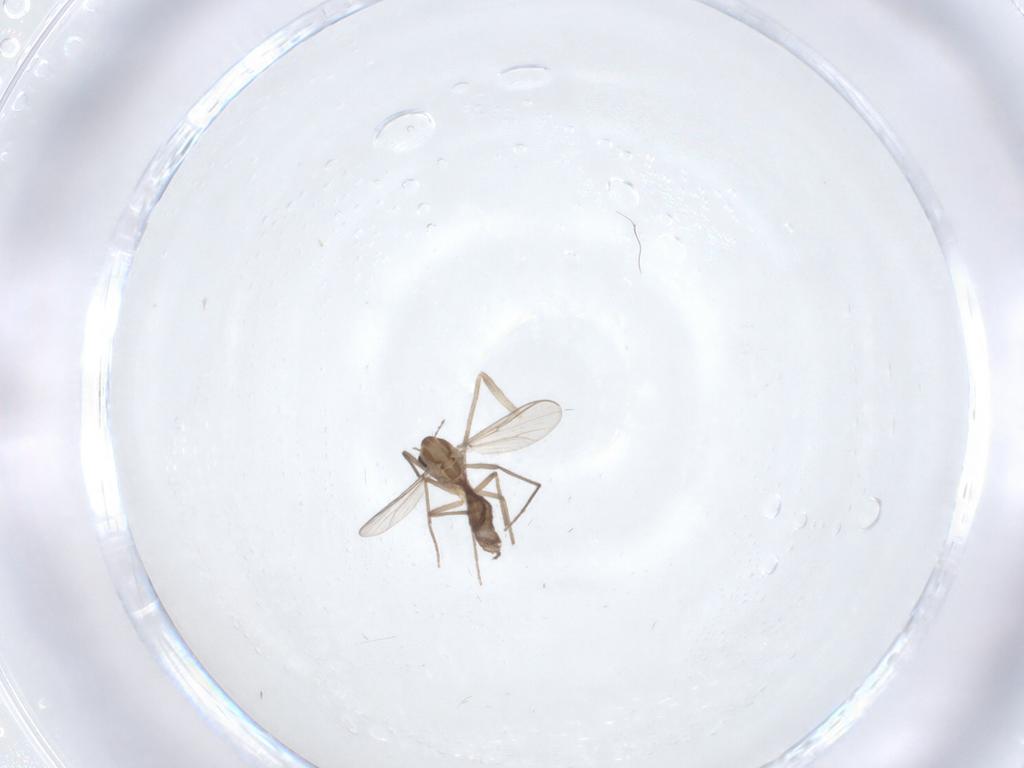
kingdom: Animalia
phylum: Arthropoda
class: Insecta
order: Diptera
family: Chironomidae
